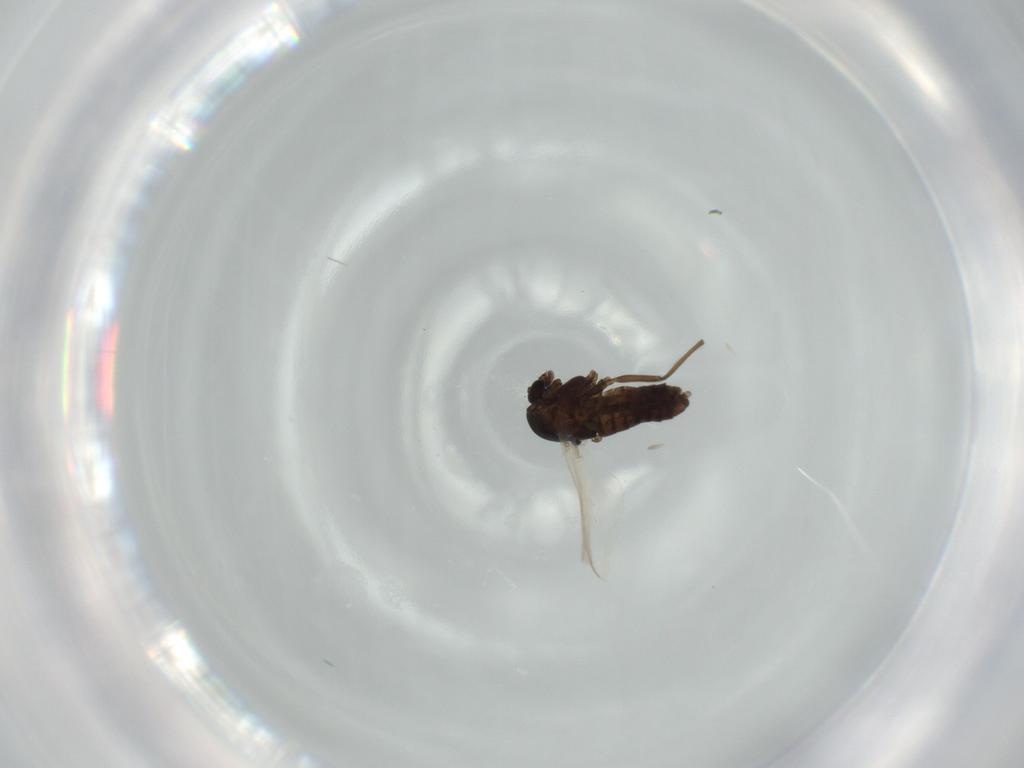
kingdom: Animalia
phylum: Arthropoda
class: Insecta
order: Diptera
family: Muscidae
